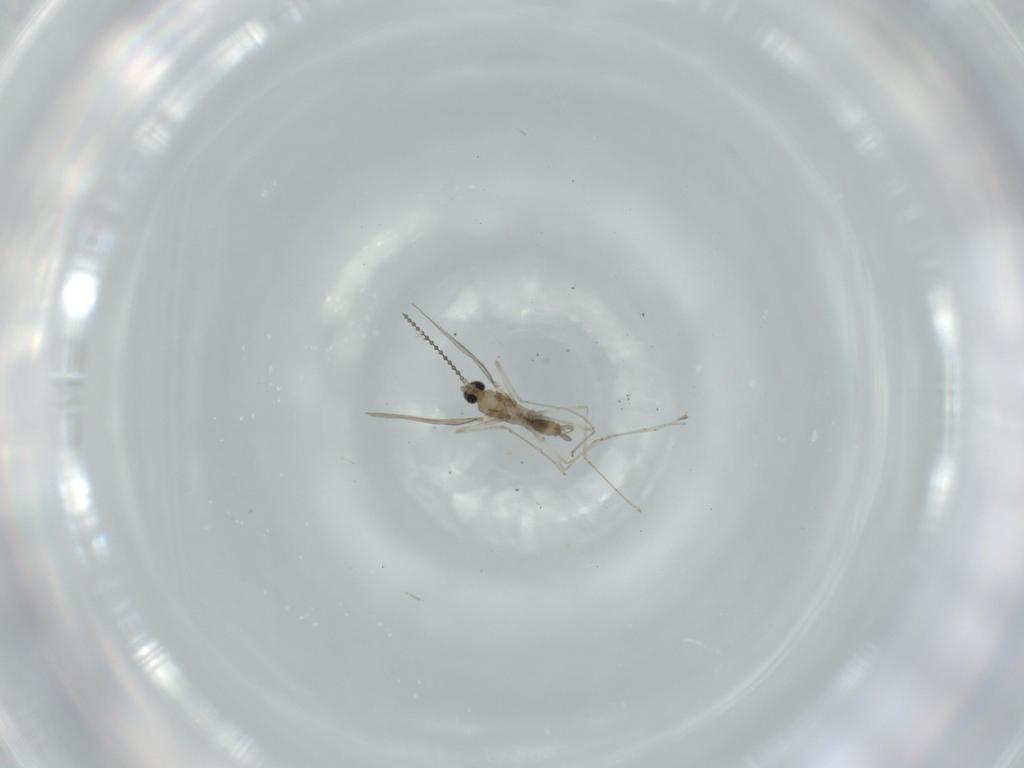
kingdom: Animalia
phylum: Arthropoda
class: Insecta
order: Diptera
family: Cecidomyiidae
